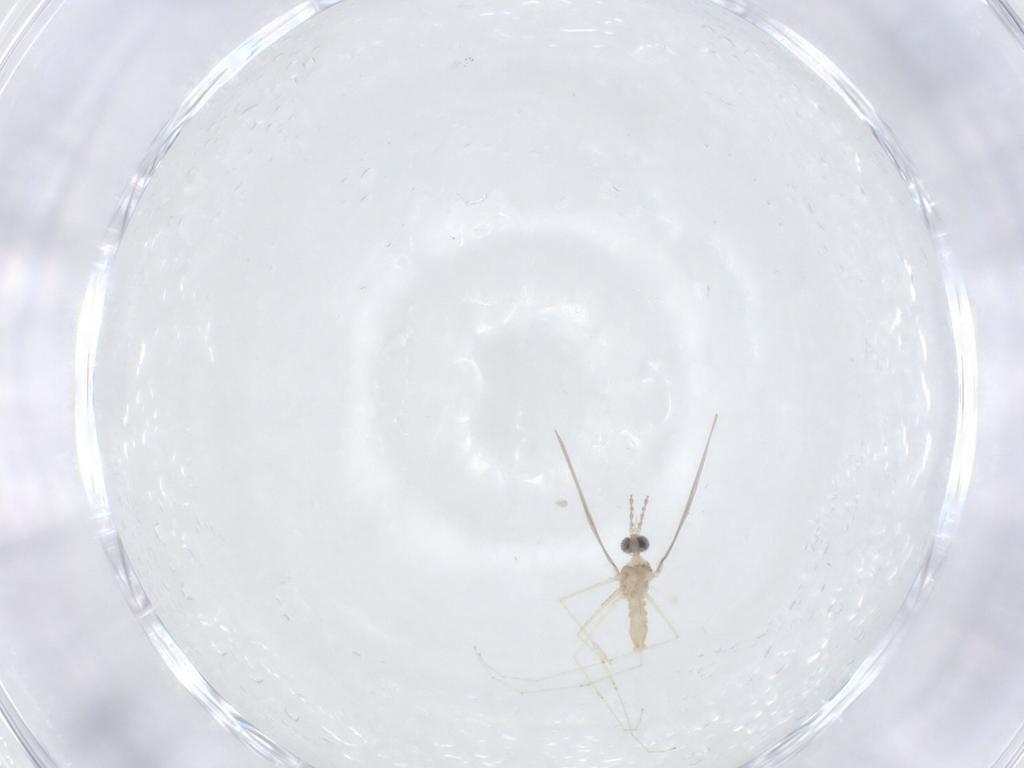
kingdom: Animalia
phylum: Arthropoda
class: Insecta
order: Diptera
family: Cecidomyiidae
